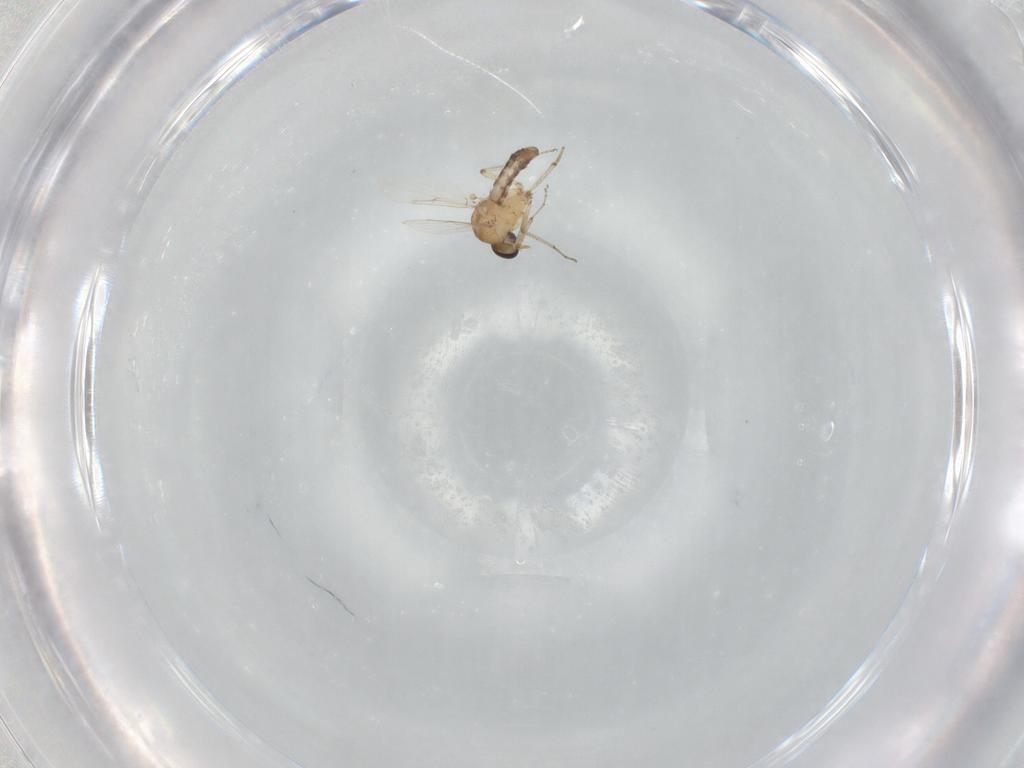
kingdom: Animalia
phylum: Arthropoda
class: Insecta
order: Diptera
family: Ceratopogonidae
